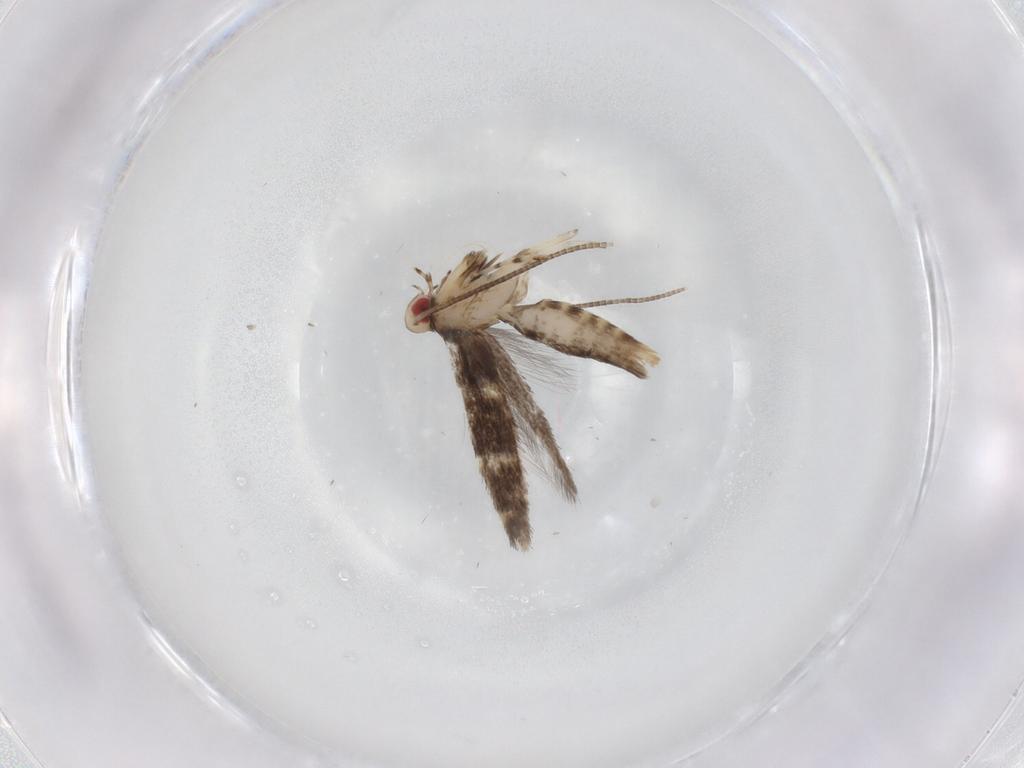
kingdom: Animalia
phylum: Arthropoda
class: Insecta
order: Lepidoptera
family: Gracillariidae
